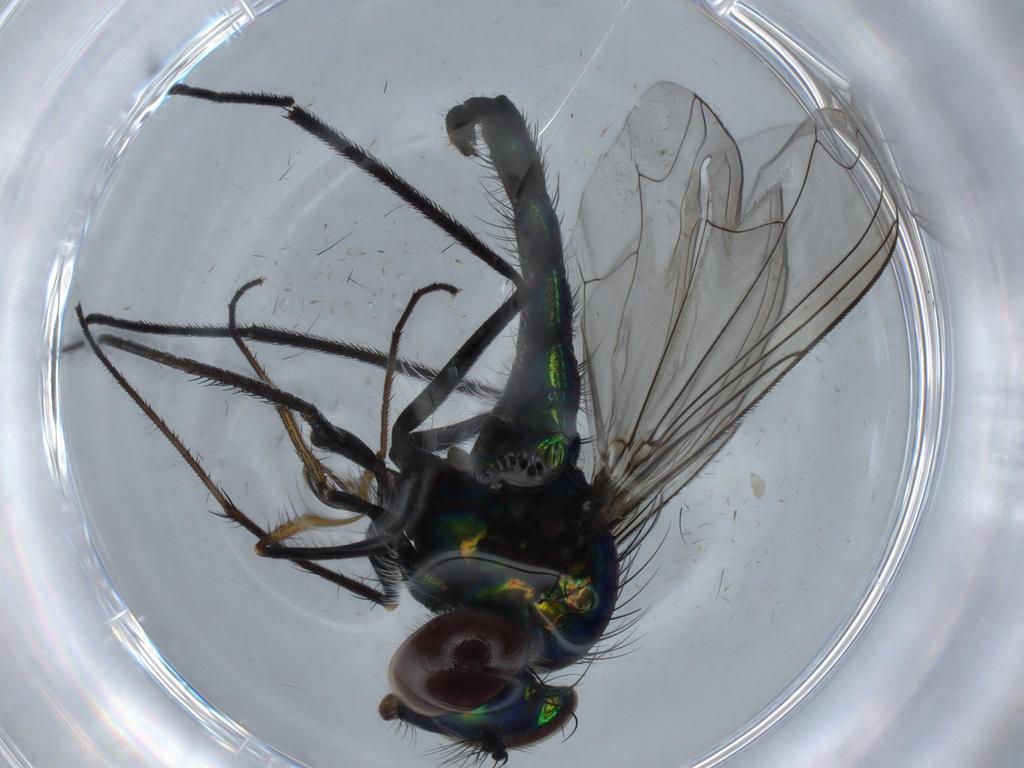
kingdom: Animalia
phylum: Arthropoda
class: Insecta
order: Diptera
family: Dolichopodidae
